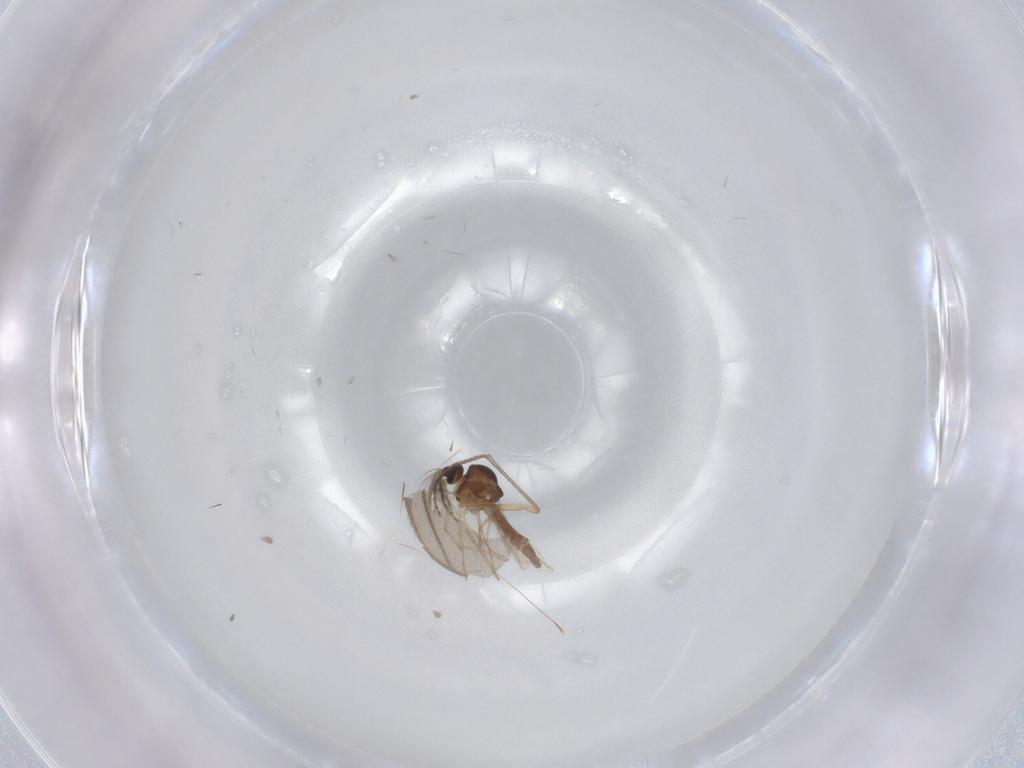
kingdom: Animalia
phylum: Arthropoda
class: Insecta
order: Diptera
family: Ceratopogonidae
